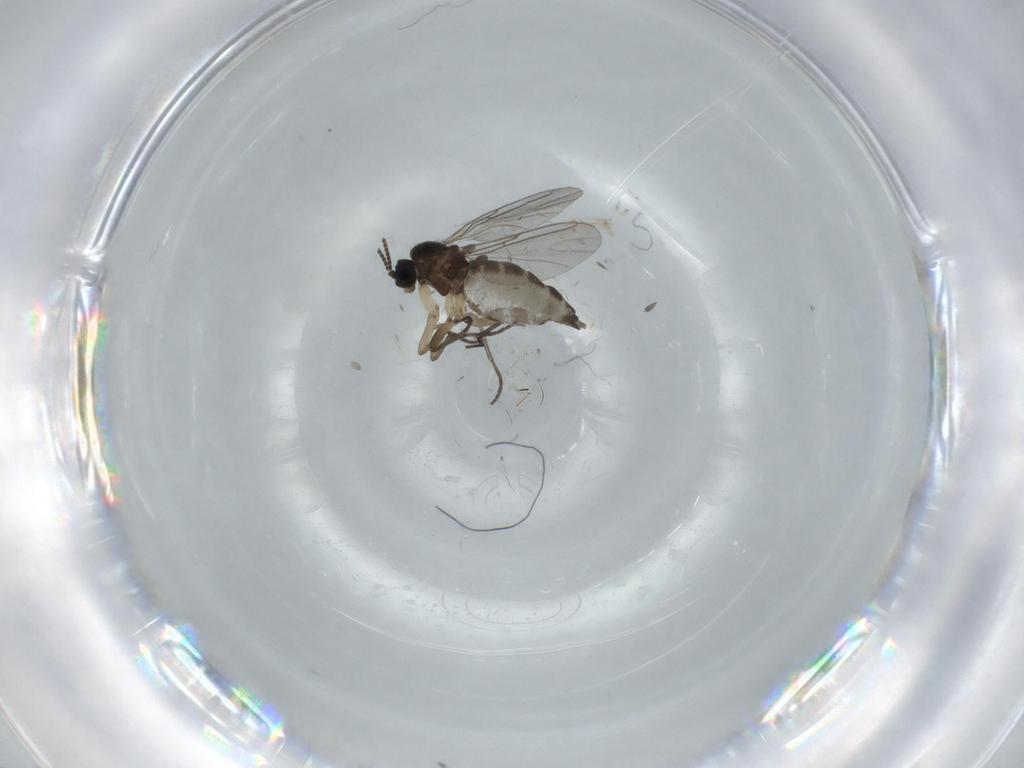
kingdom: Animalia
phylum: Arthropoda
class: Insecta
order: Diptera
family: Sciaridae
